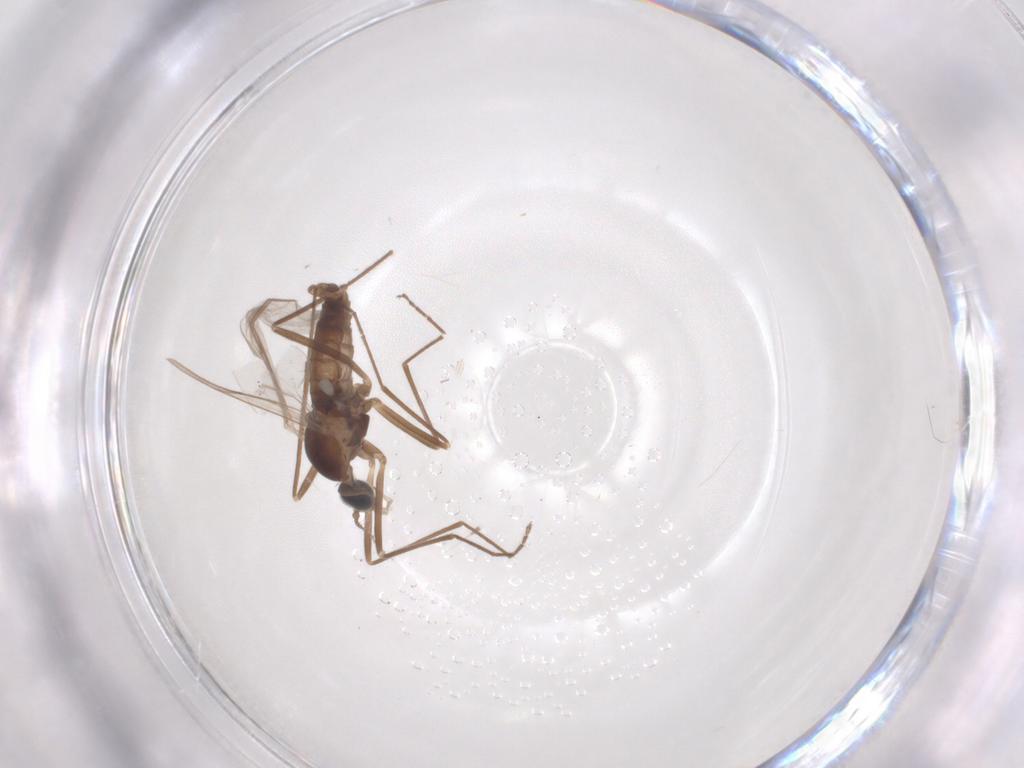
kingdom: Animalia
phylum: Arthropoda
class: Insecta
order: Diptera
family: Cecidomyiidae
